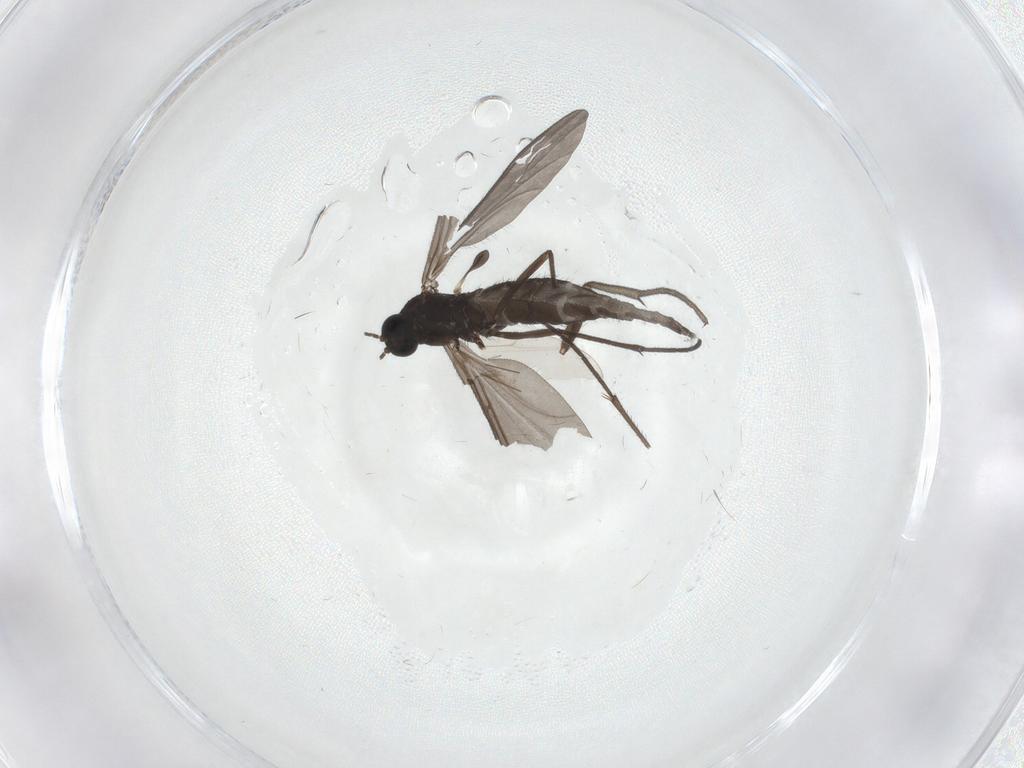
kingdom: Animalia
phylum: Arthropoda
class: Insecta
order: Diptera
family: Sciaridae
